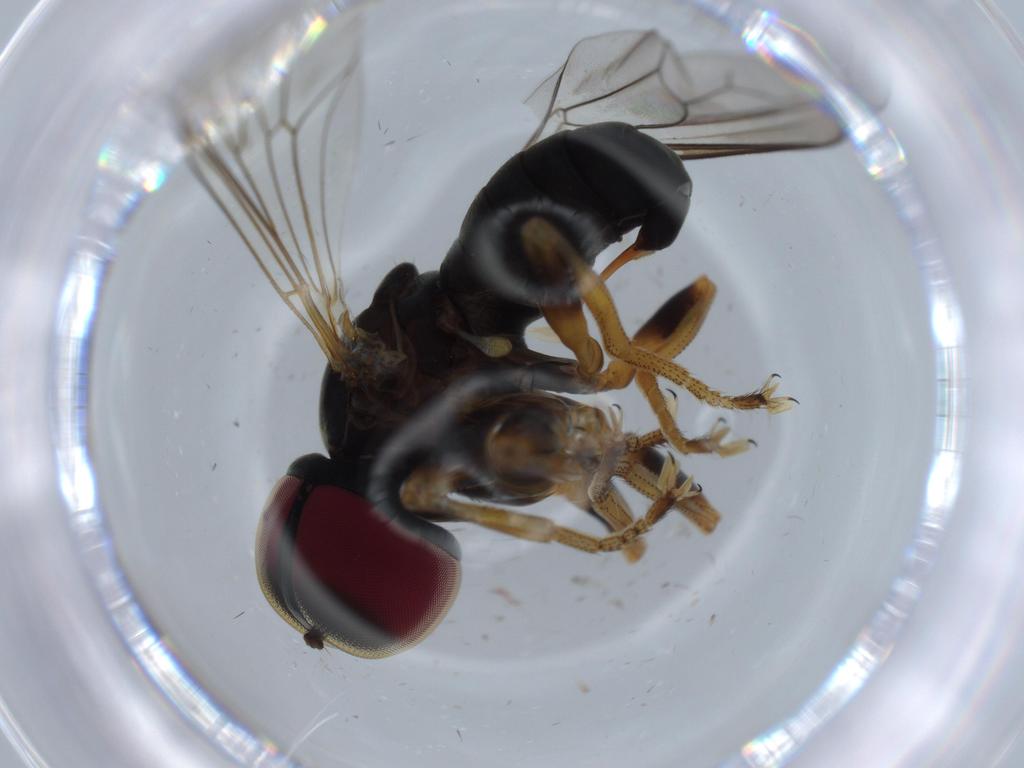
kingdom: Animalia
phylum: Arthropoda
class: Insecta
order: Diptera
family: Sciaridae
